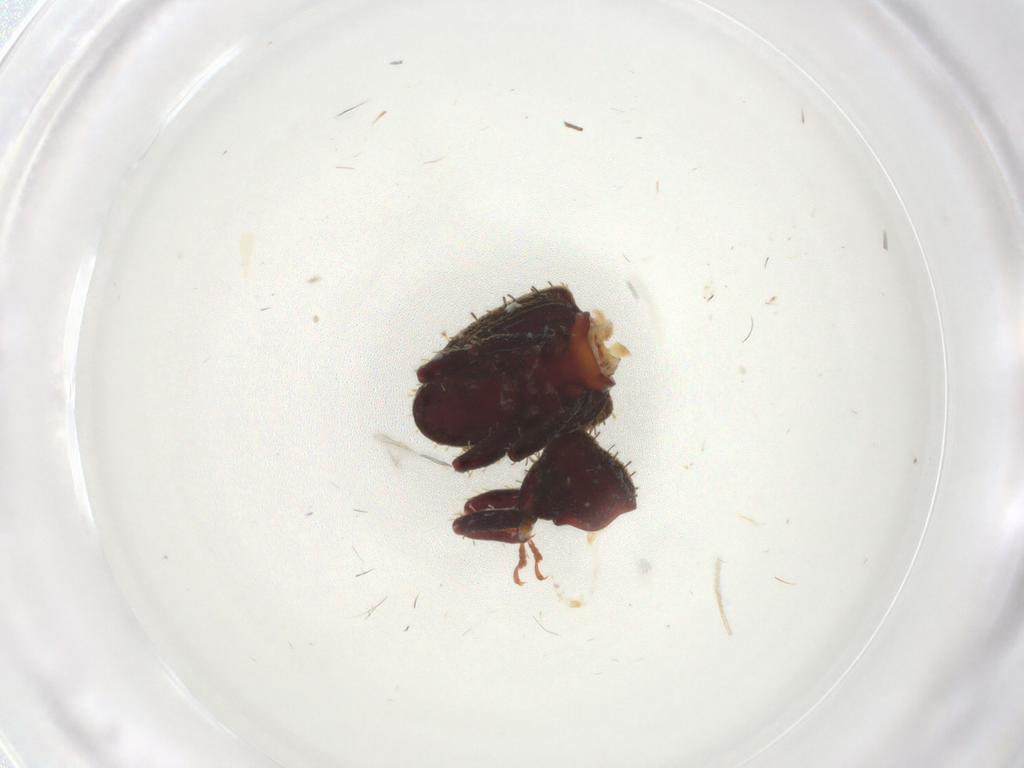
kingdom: Animalia
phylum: Arthropoda
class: Insecta
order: Coleoptera
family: Curculionidae
